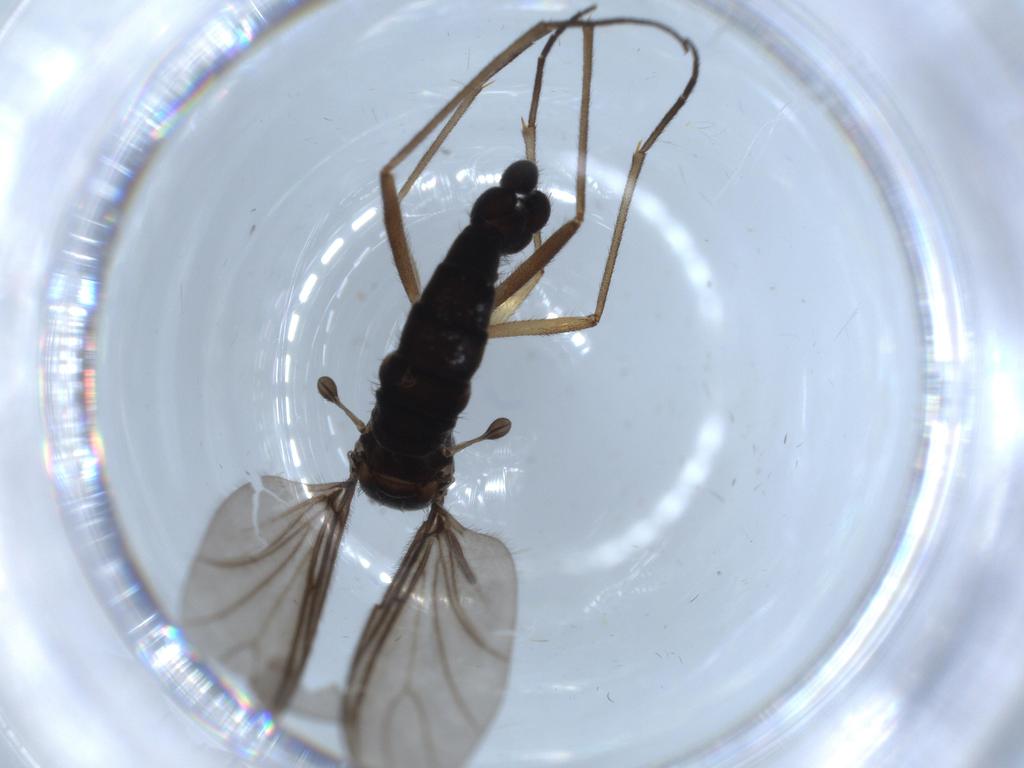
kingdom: Animalia
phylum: Arthropoda
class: Insecta
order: Diptera
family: Sciaridae
